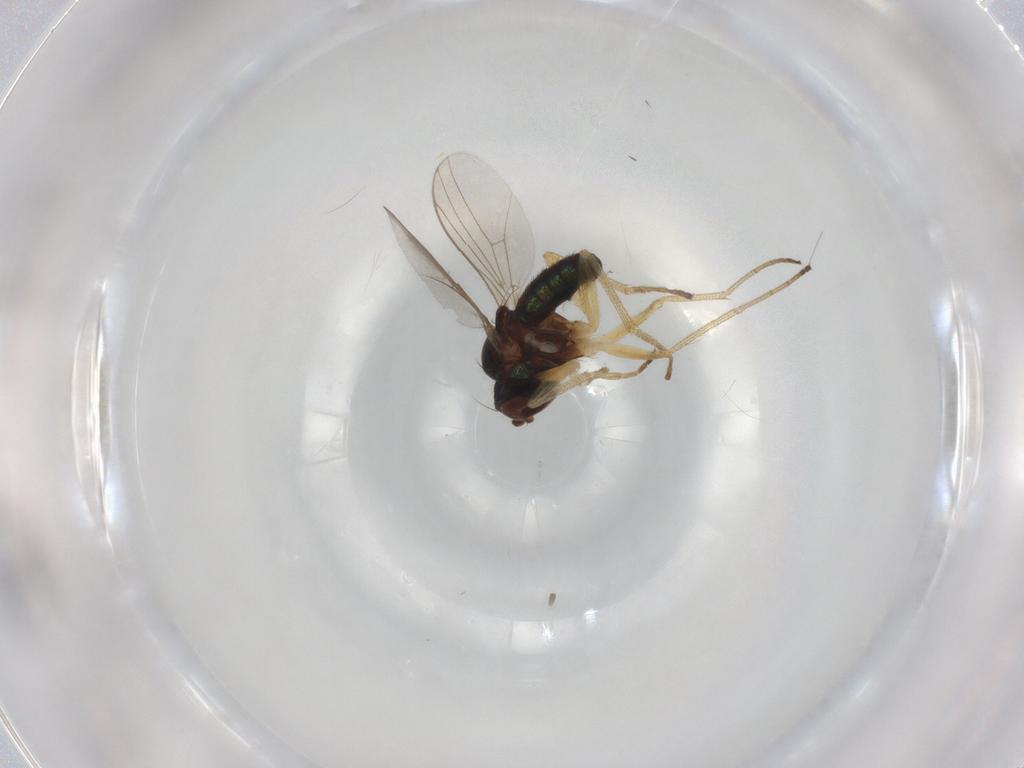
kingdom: Animalia
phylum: Arthropoda
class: Insecta
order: Diptera
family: Dolichopodidae
